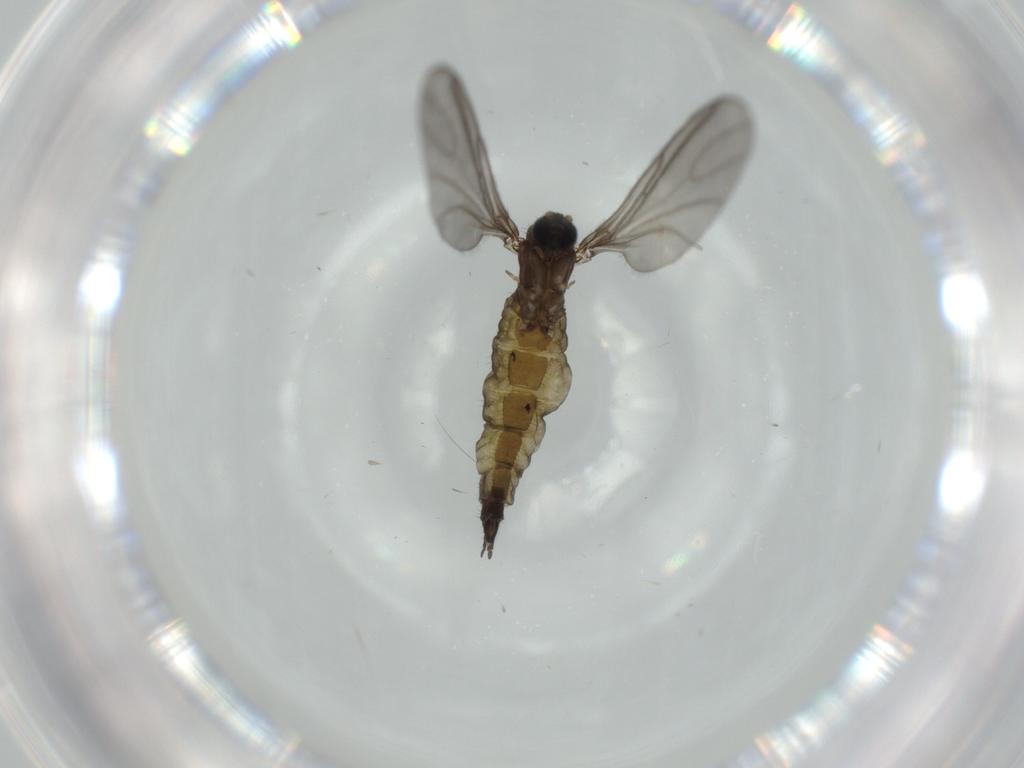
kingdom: Animalia
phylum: Arthropoda
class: Insecta
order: Diptera
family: Sciaridae
